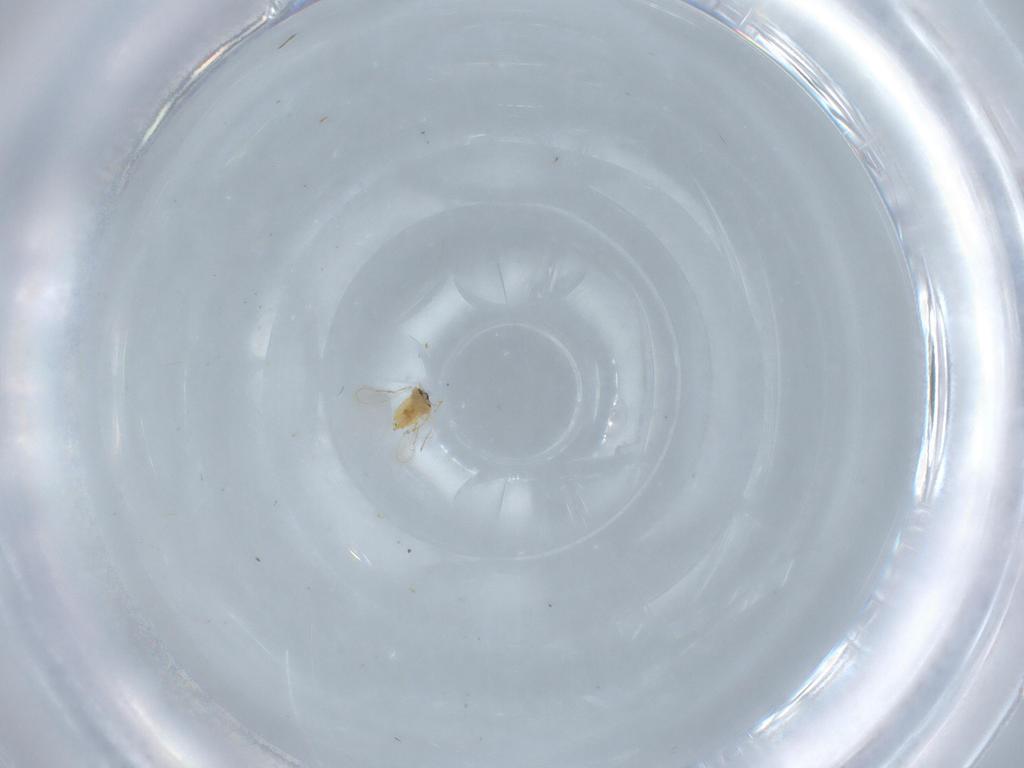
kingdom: Animalia
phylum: Arthropoda
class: Insecta
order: Hymenoptera
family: Aphelinidae
